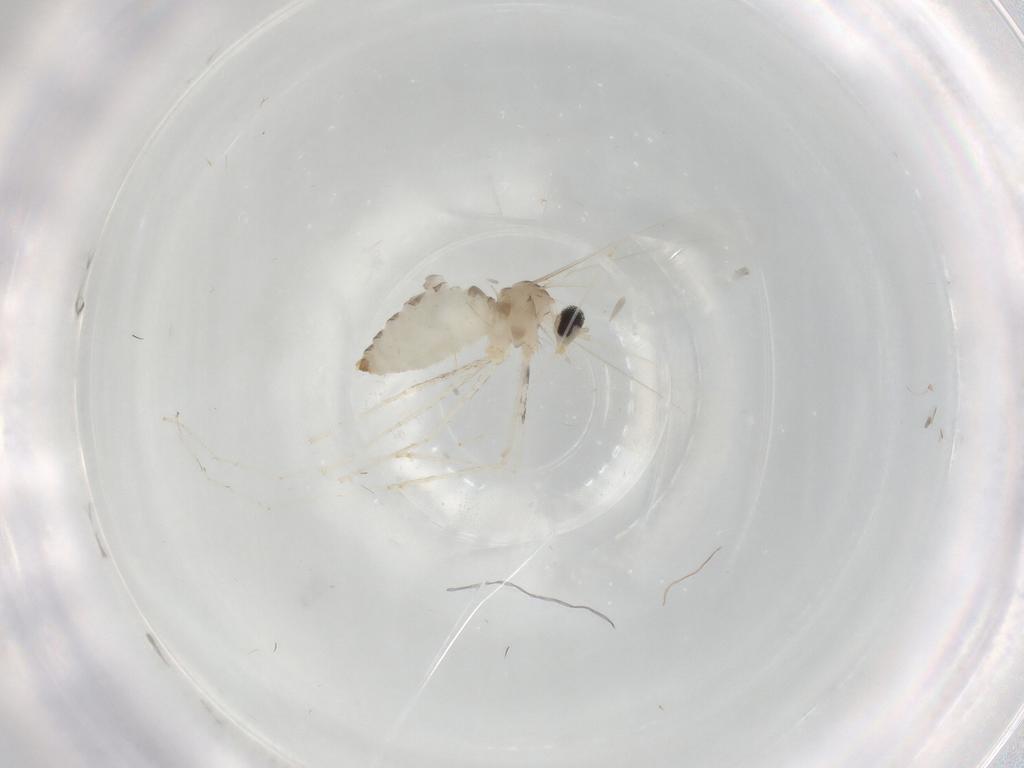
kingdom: Animalia
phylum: Arthropoda
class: Insecta
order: Diptera
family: Cecidomyiidae
